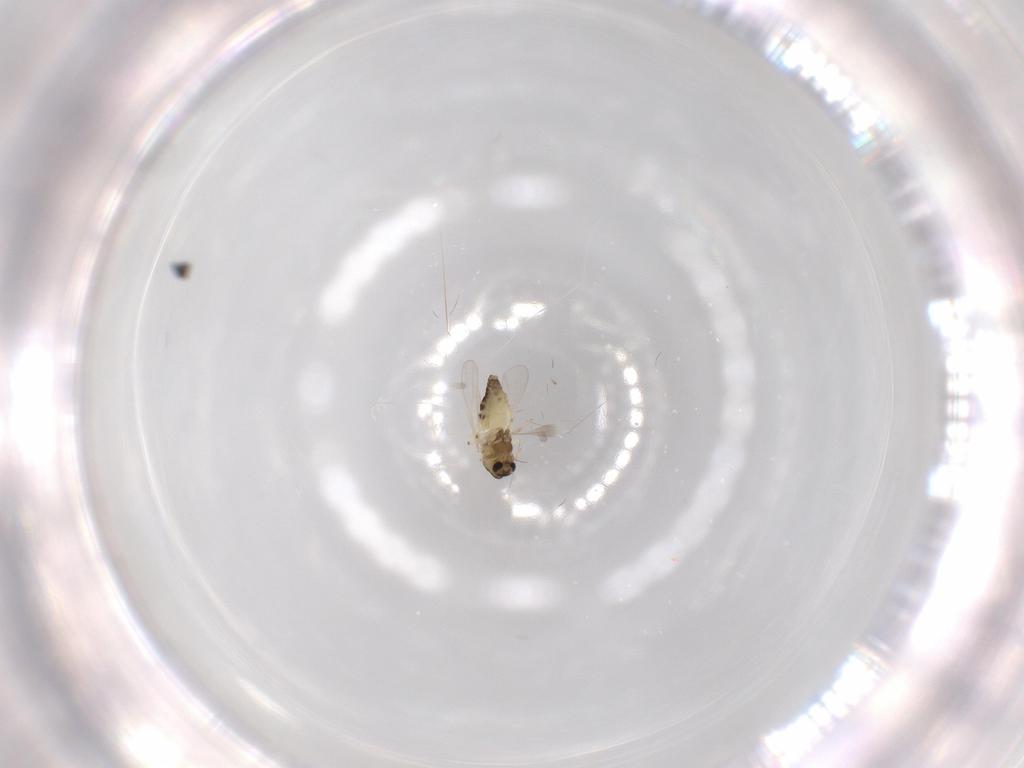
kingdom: Animalia
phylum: Arthropoda
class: Insecta
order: Diptera
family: Chironomidae
